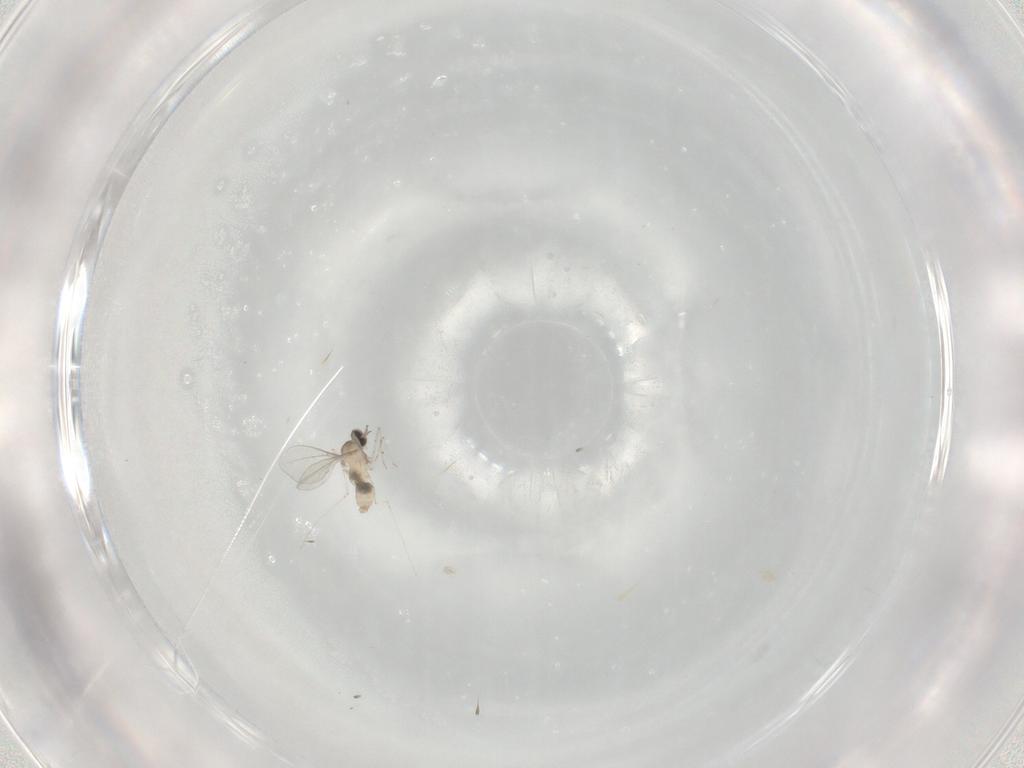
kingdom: Animalia
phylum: Arthropoda
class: Insecta
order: Diptera
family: Cecidomyiidae
